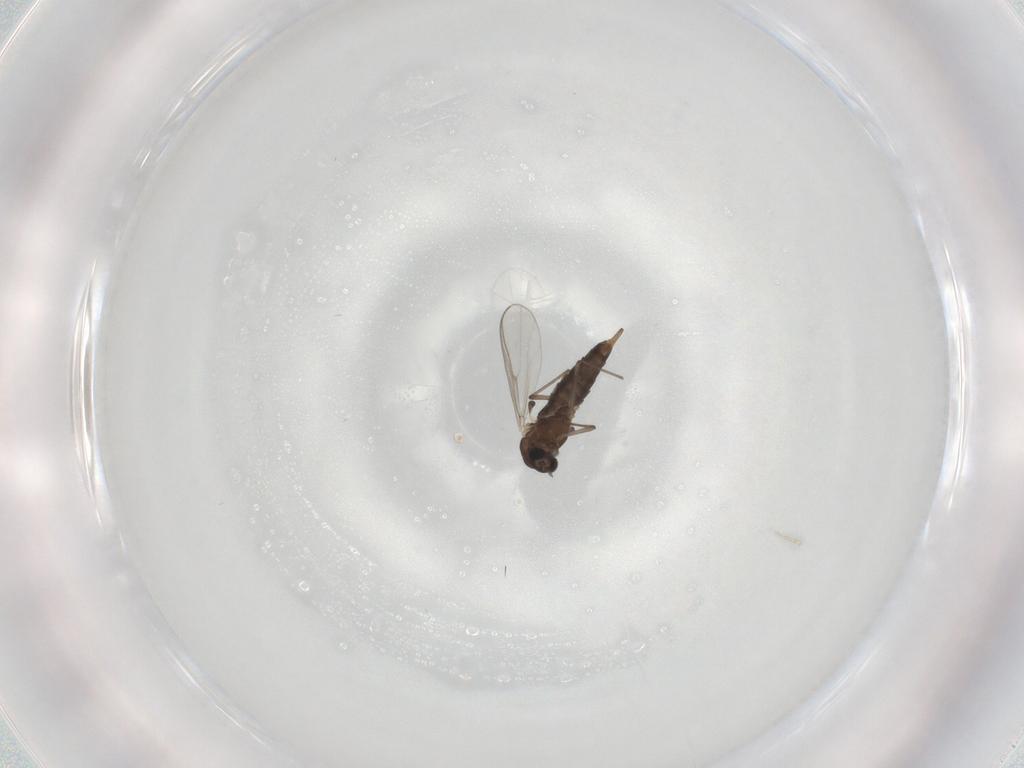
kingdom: Animalia
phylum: Arthropoda
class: Insecta
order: Diptera
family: Chironomidae
